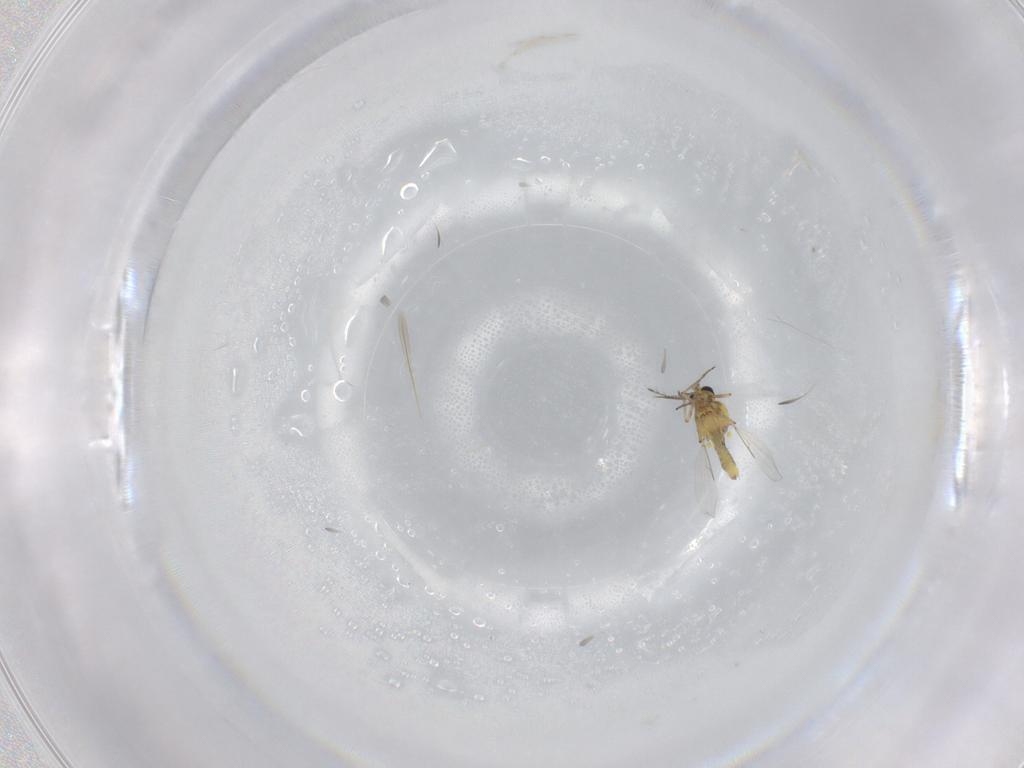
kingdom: Animalia
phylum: Arthropoda
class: Insecta
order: Diptera
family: Ceratopogonidae
